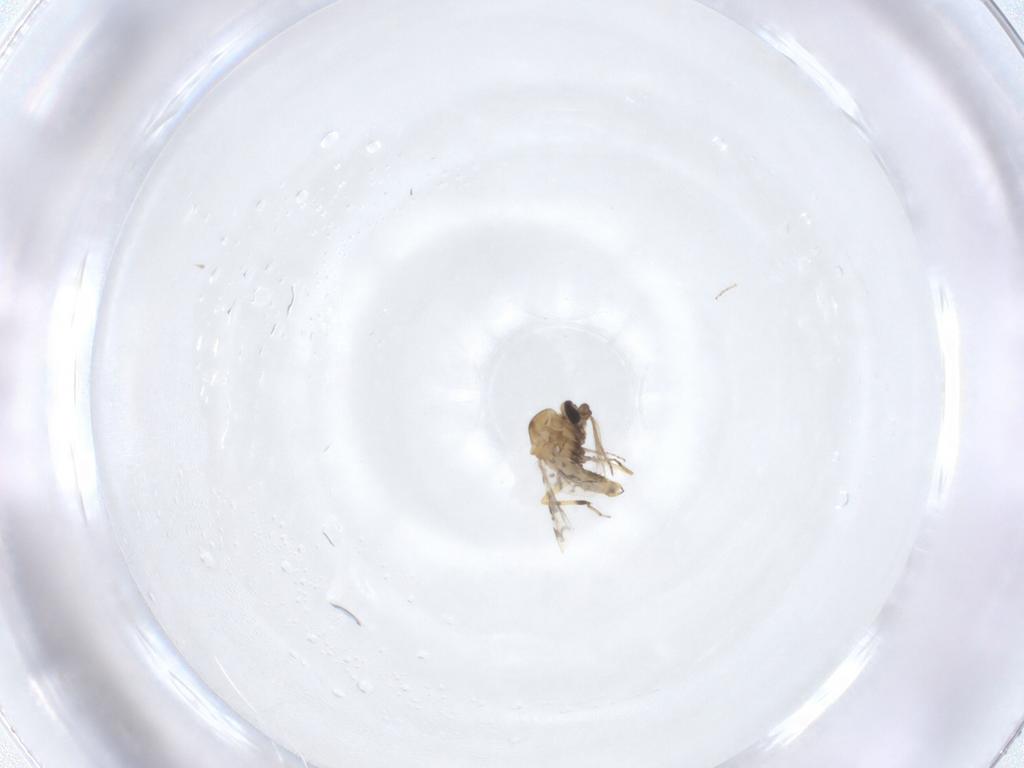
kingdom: Animalia
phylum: Arthropoda
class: Insecta
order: Diptera
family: Ceratopogonidae
